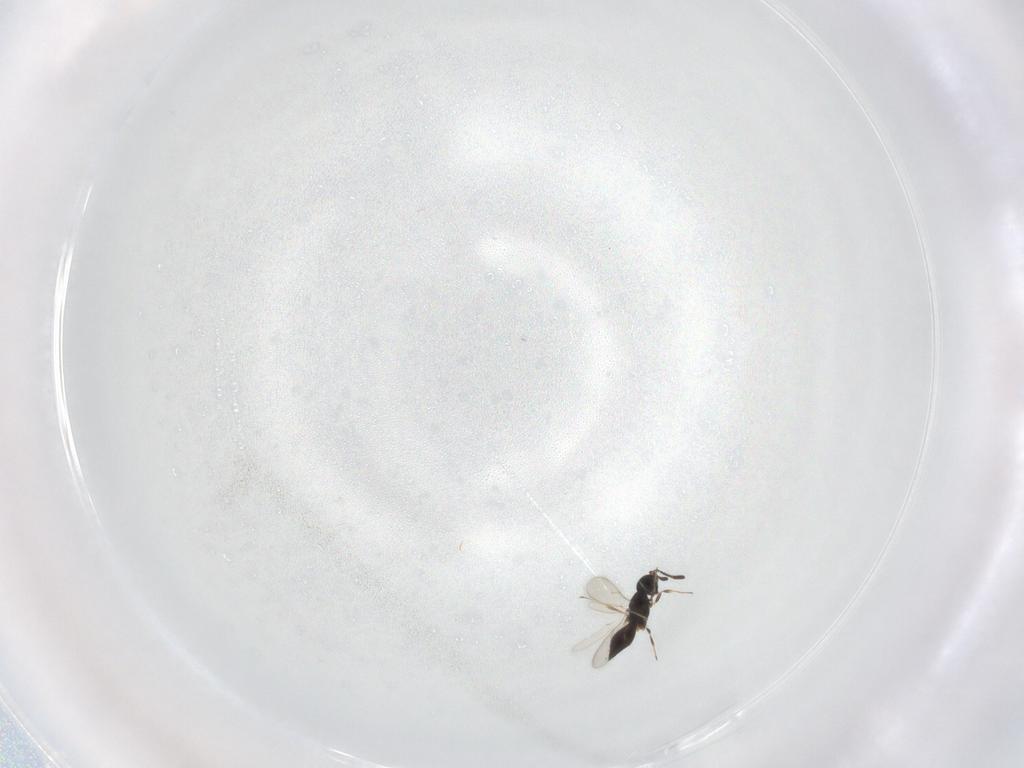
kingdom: Animalia
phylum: Arthropoda
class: Insecta
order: Hymenoptera
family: Scelionidae
